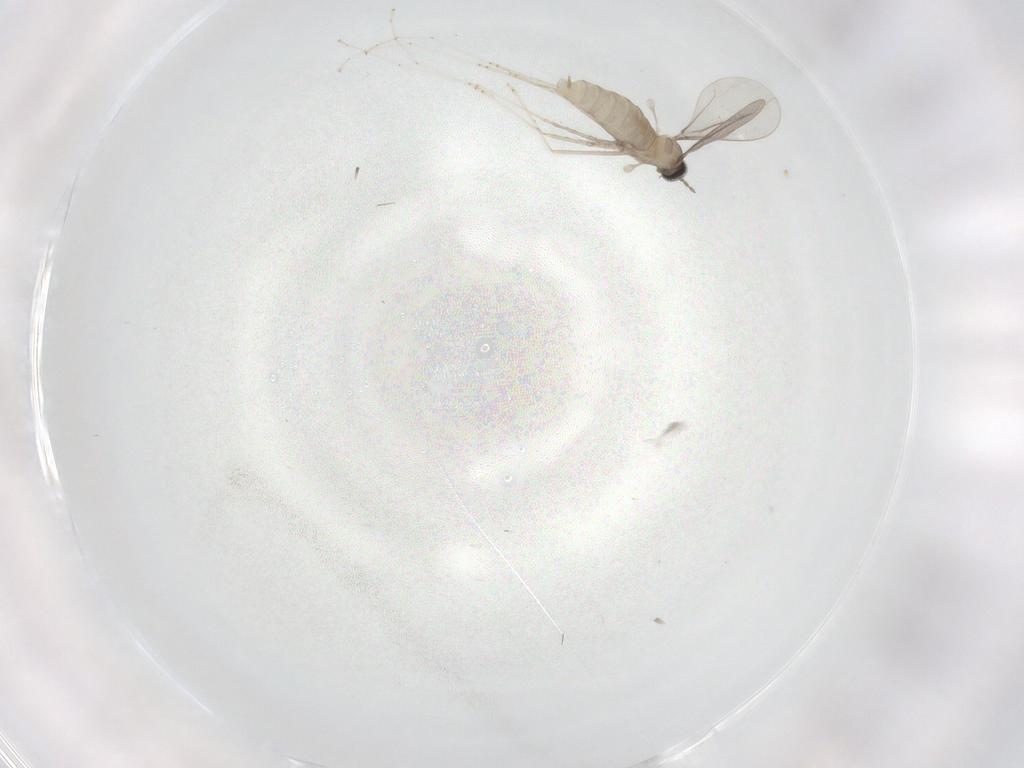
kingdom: Animalia
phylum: Arthropoda
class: Insecta
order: Diptera
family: Cecidomyiidae
